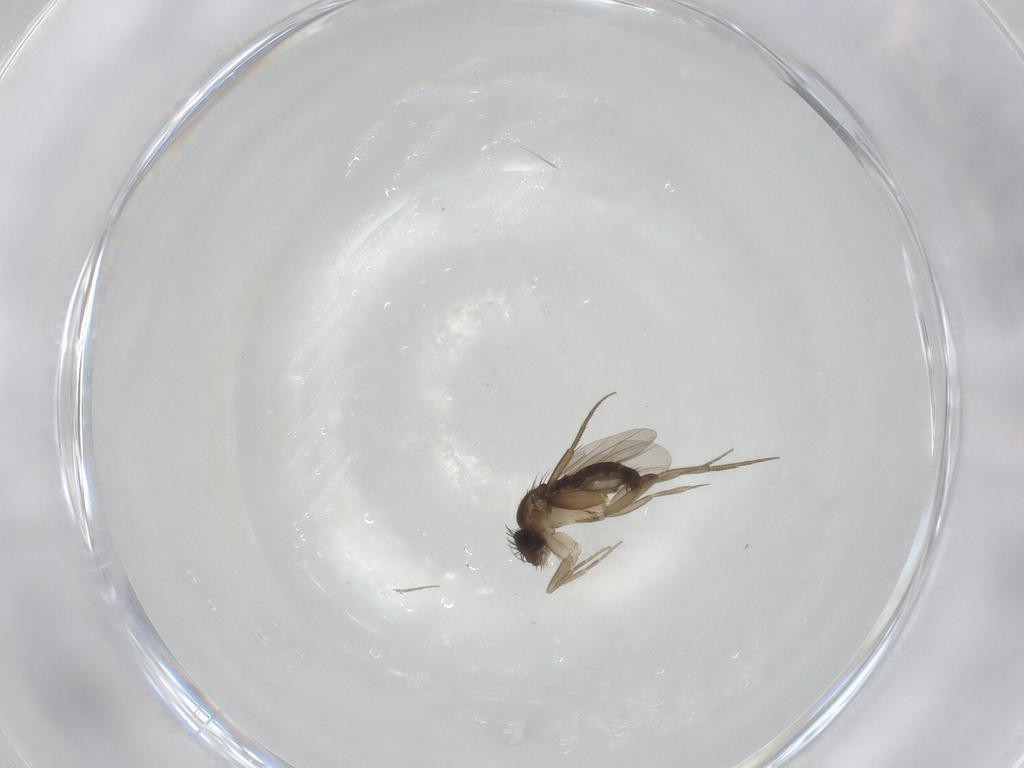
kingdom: Animalia
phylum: Arthropoda
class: Insecta
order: Diptera
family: Phoridae
